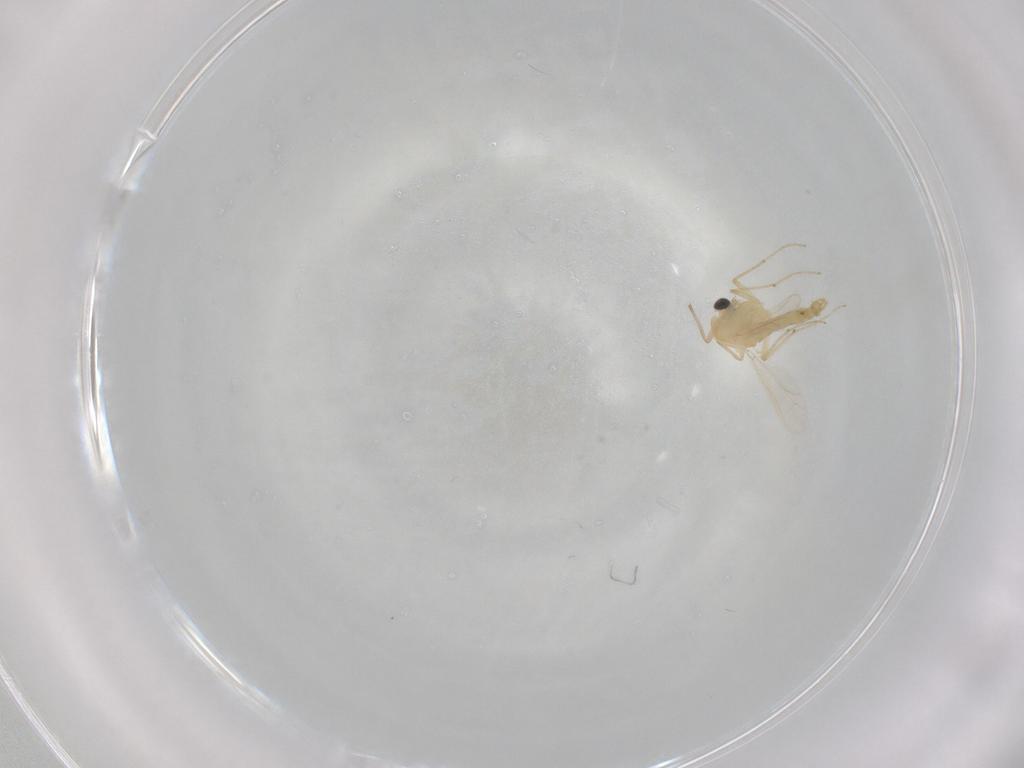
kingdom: Animalia
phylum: Arthropoda
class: Insecta
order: Diptera
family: Chironomidae
